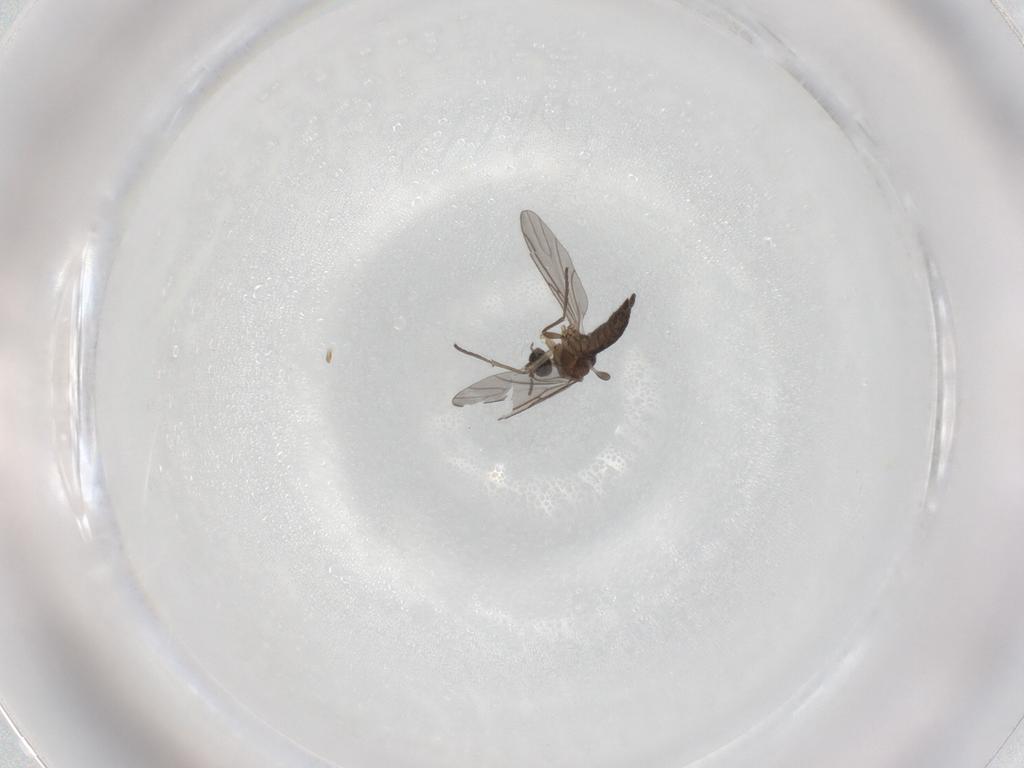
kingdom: Animalia
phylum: Arthropoda
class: Insecta
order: Diptera
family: Sciaridae
